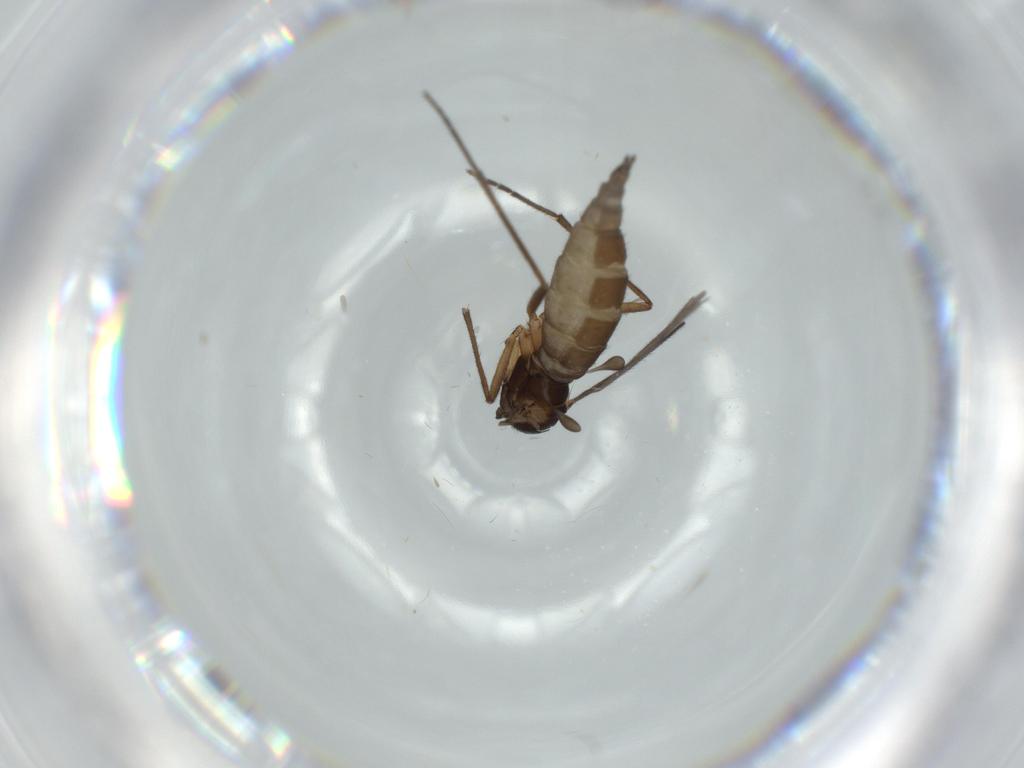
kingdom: Animalia
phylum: Arthropoda
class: Insecta
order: Diptera
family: Sciaridae
